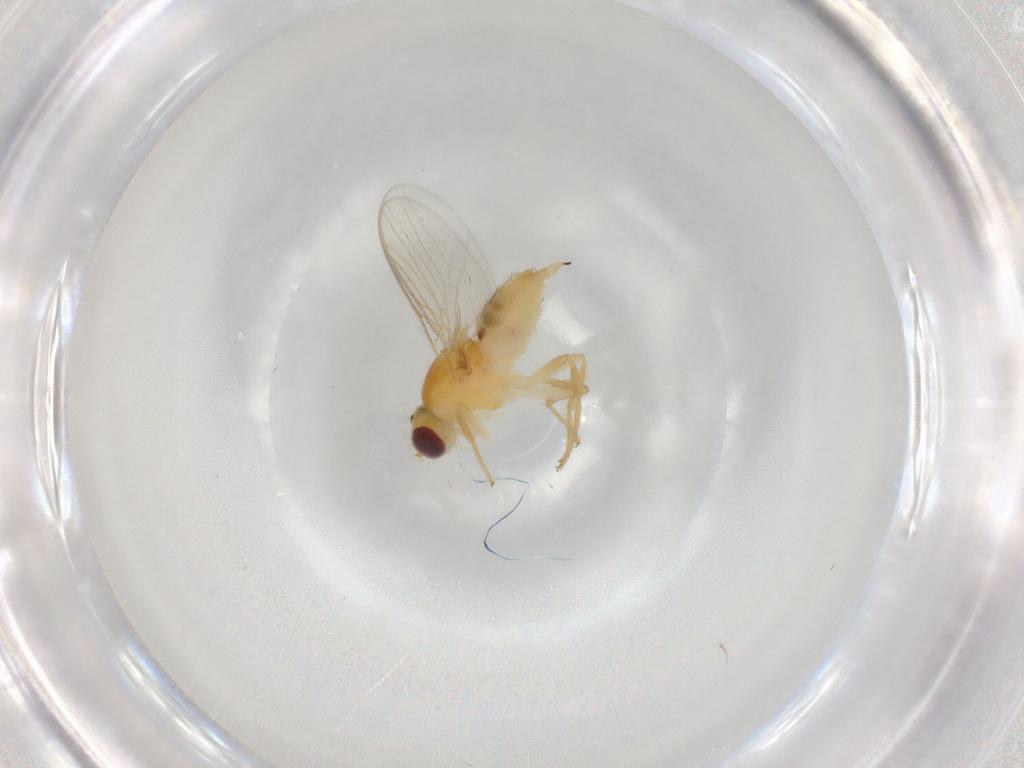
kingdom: Animalia
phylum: Arthropoda
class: Insecta
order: Diptera
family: Chloropidae
